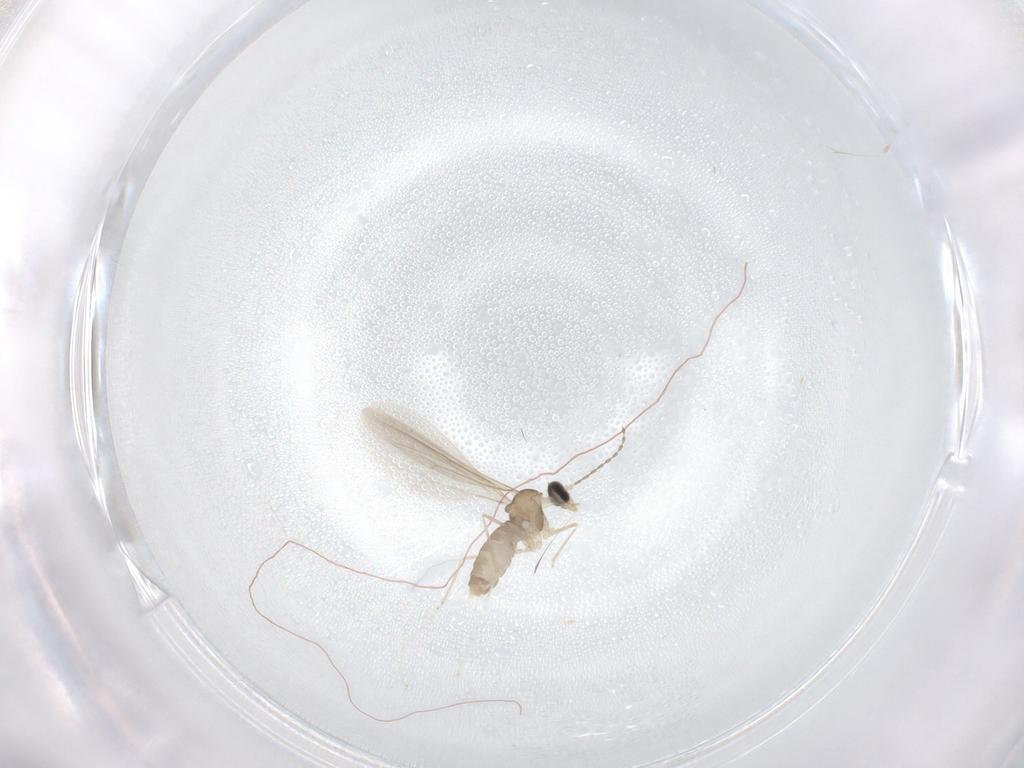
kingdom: Animalia
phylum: Arthropoda
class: Insecta
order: Diptera
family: Cecidomyiidae
